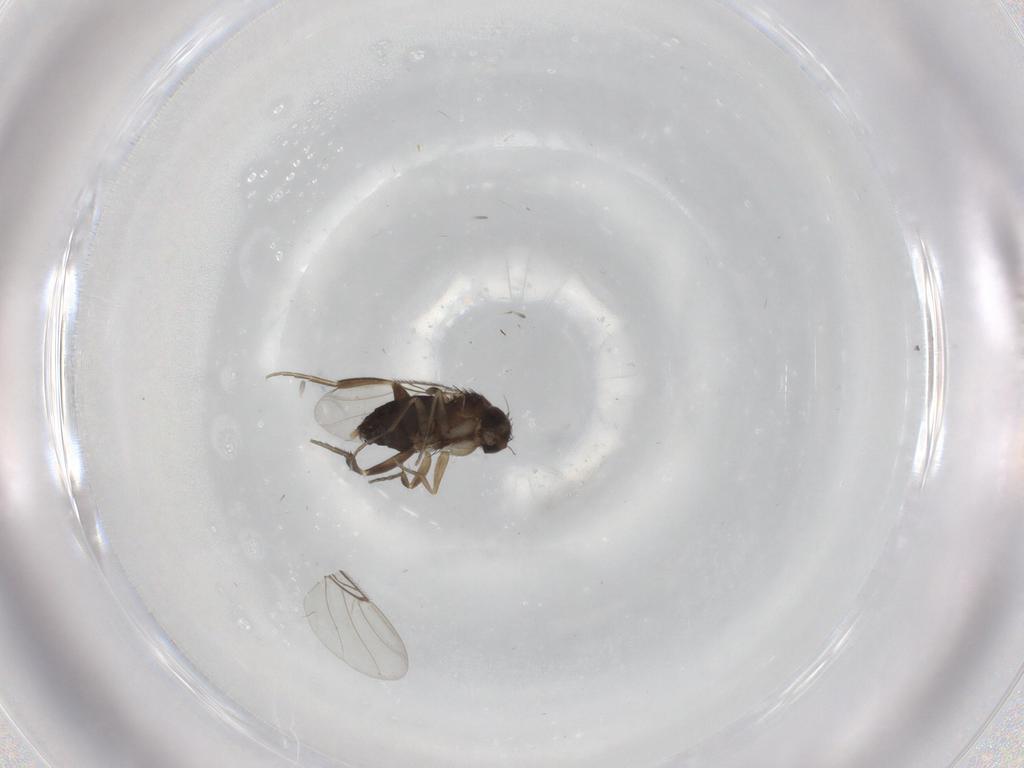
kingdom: Animalia
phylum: Arthropoda
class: Insecta
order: Diptera
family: Phoridae
